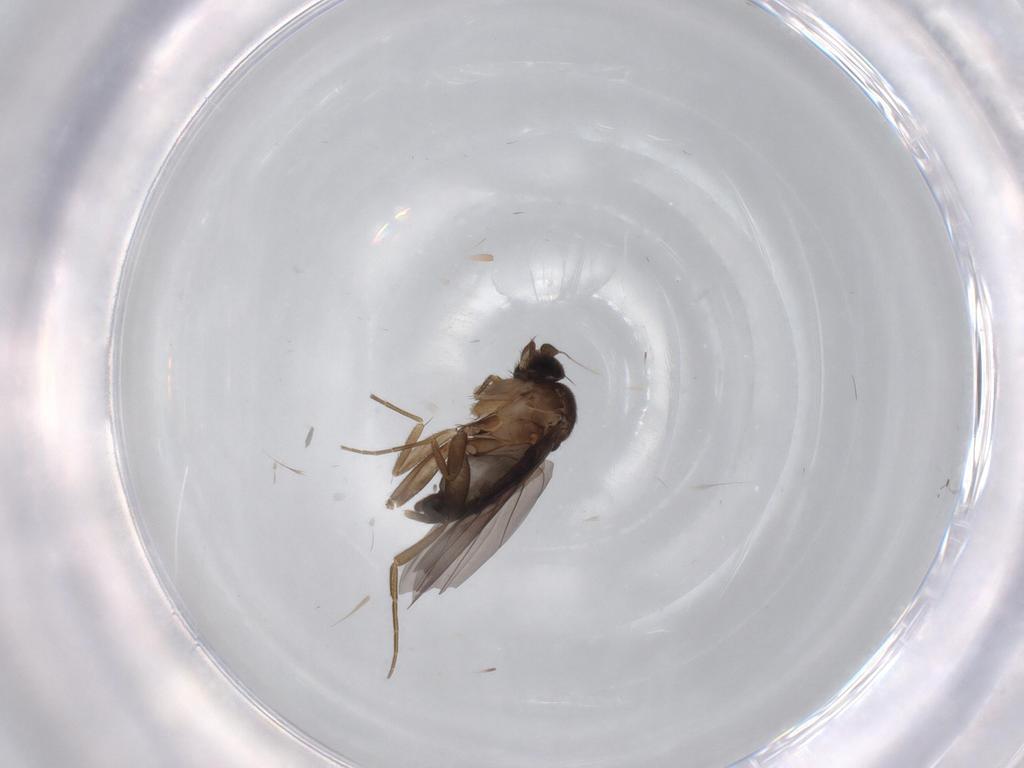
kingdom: Animalia
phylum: Arthropoda
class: Insecta
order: Diptera
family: Phoridae
